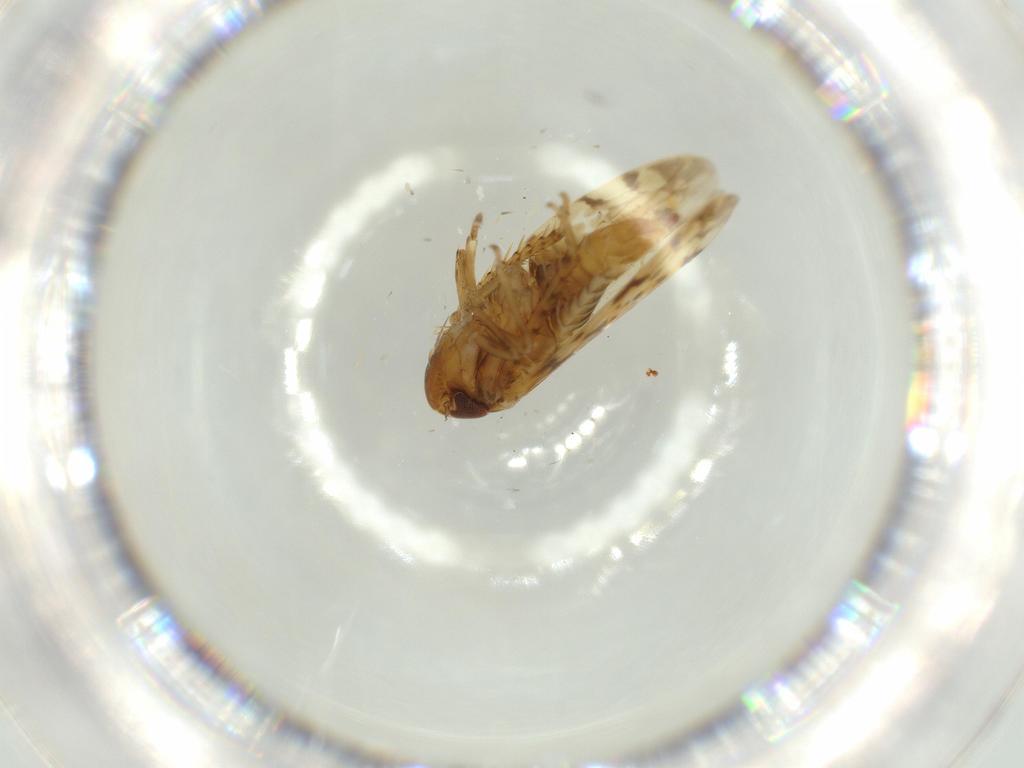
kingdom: Animalia
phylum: Arthropoda
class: Insecta
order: Hemiptera
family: Cicadellidae
